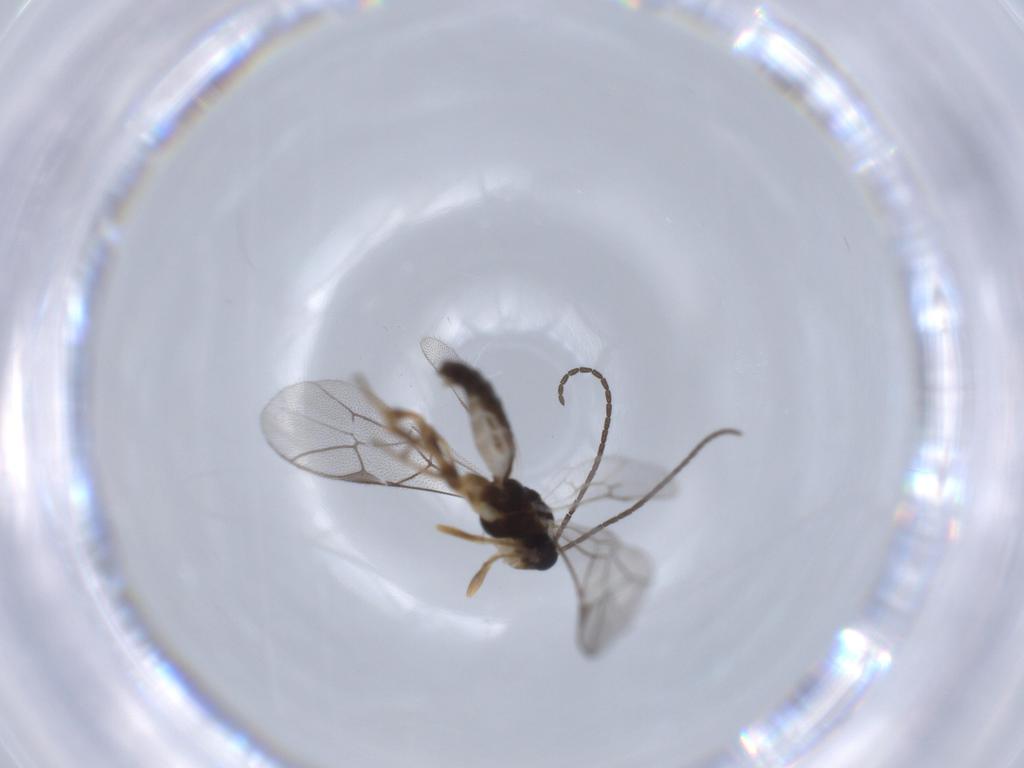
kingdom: Animalia
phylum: Arthropoda
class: Insecta
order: Hymenoptera
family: Ichneumonidae
